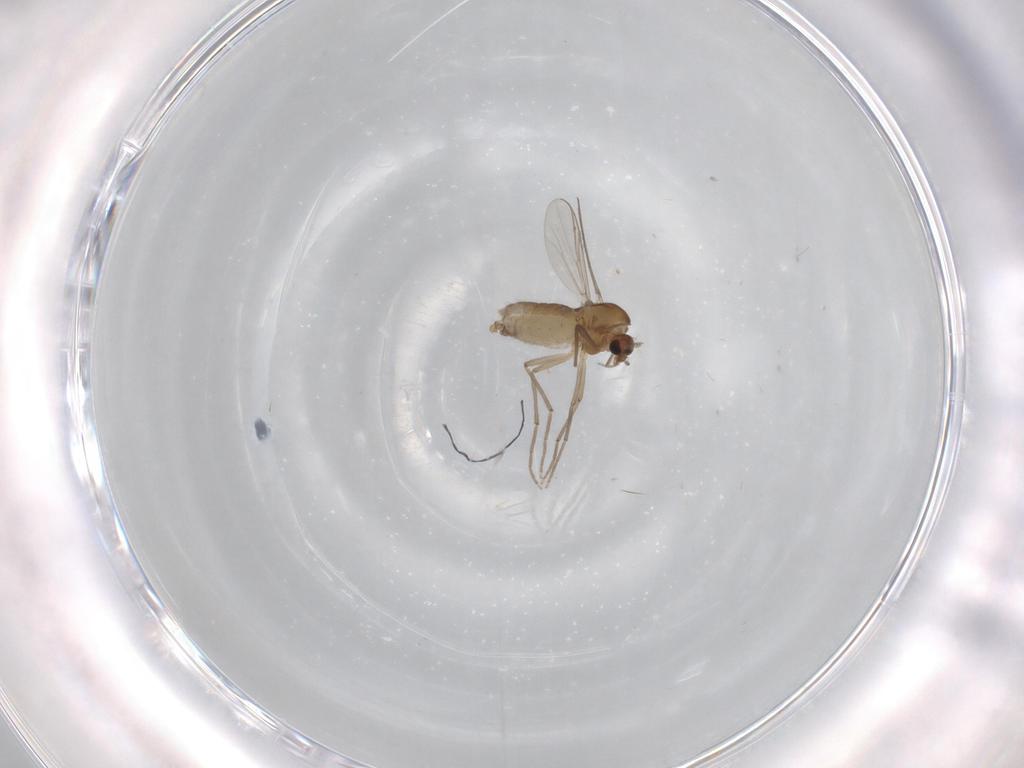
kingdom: Animalia
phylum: Arthropoda
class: Insecta
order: Diptera
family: Chironomidae
